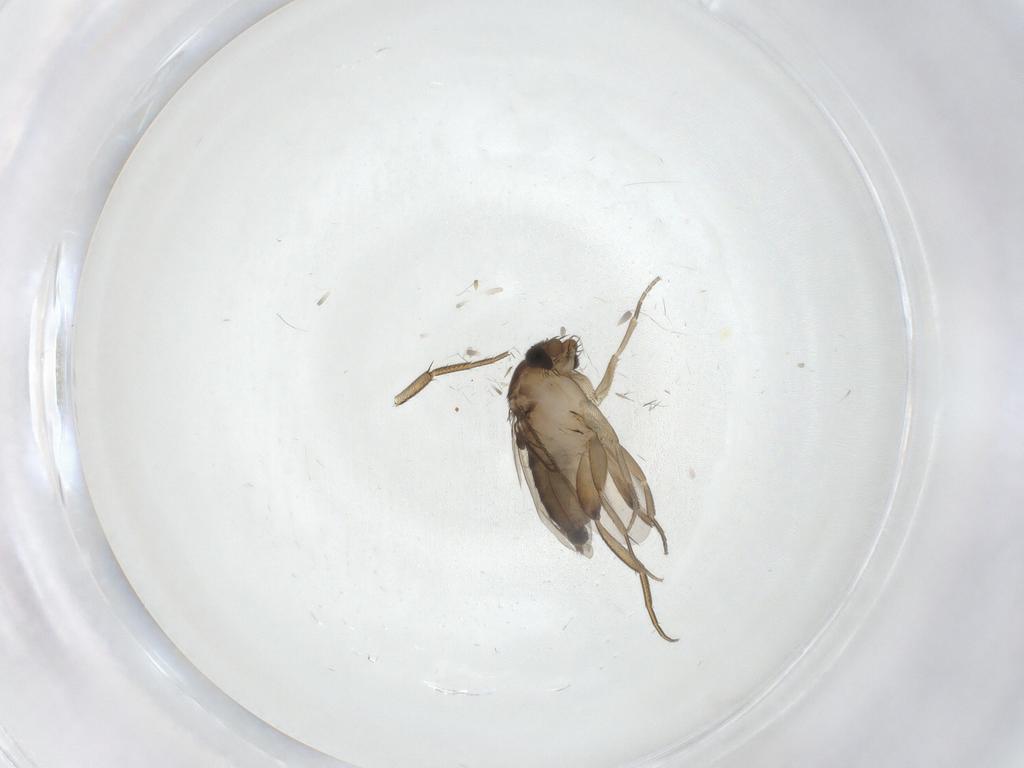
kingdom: Animalia
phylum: Arthropoda
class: Insecta
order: Diptera
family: Phoridae
